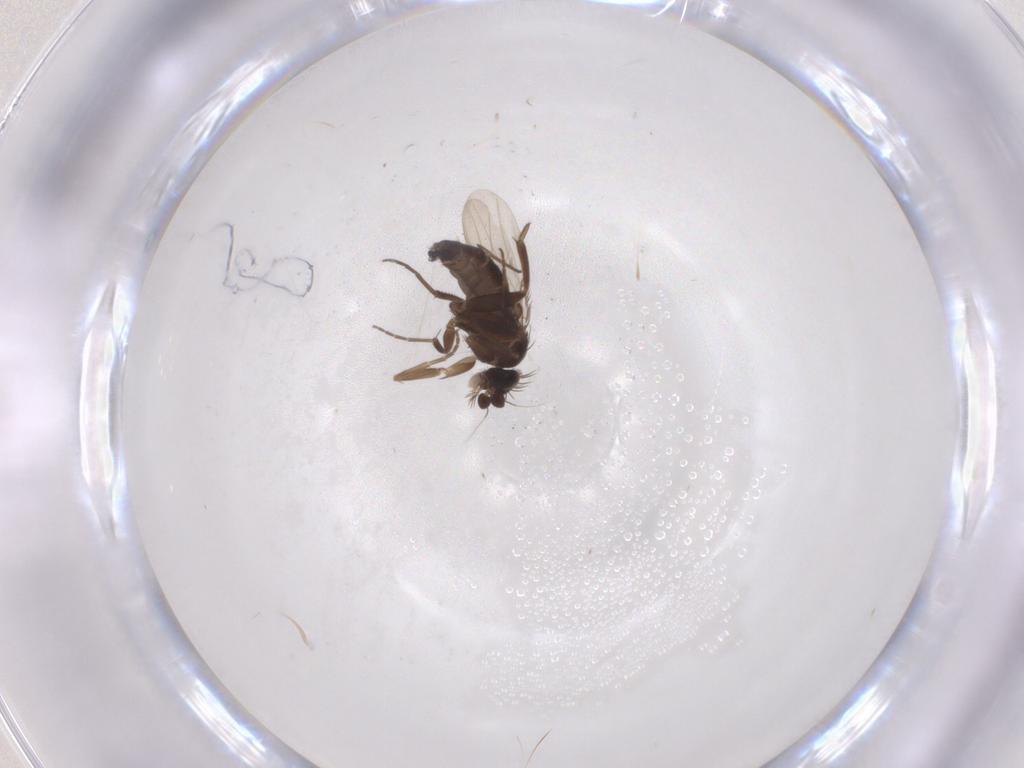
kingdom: Animalia
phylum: Arthropoda
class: Insecta
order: Diptera
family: Phoridae
